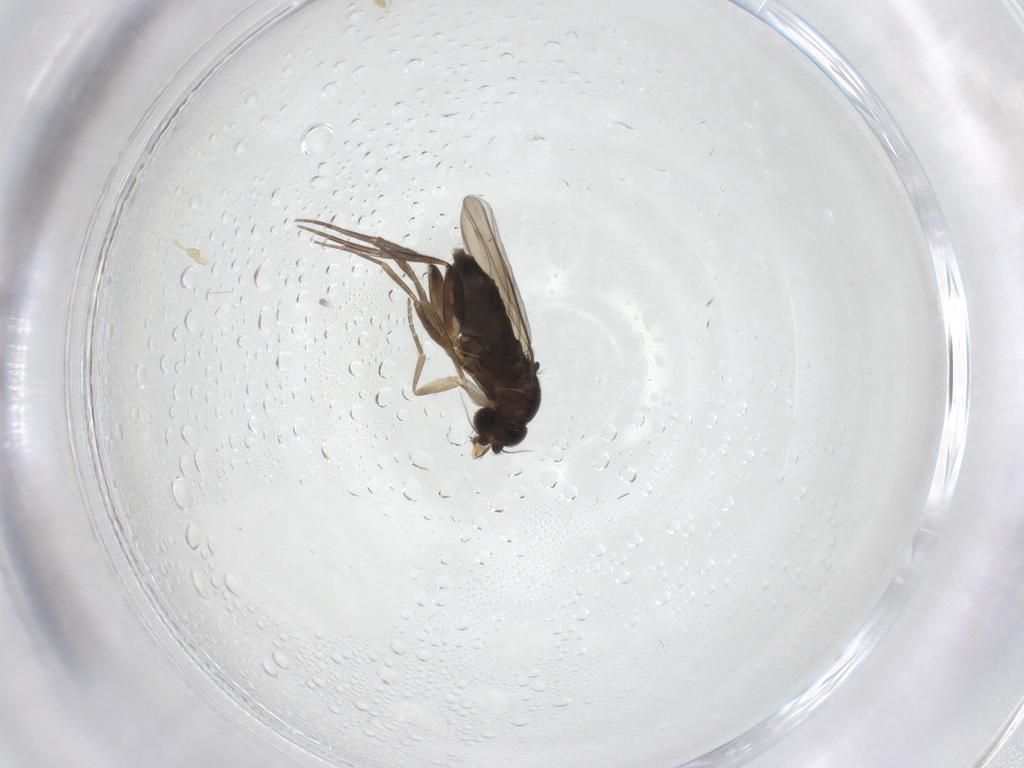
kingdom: Animalia
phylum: Arthropoda
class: Insecta
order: Diptera
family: Phoridae
